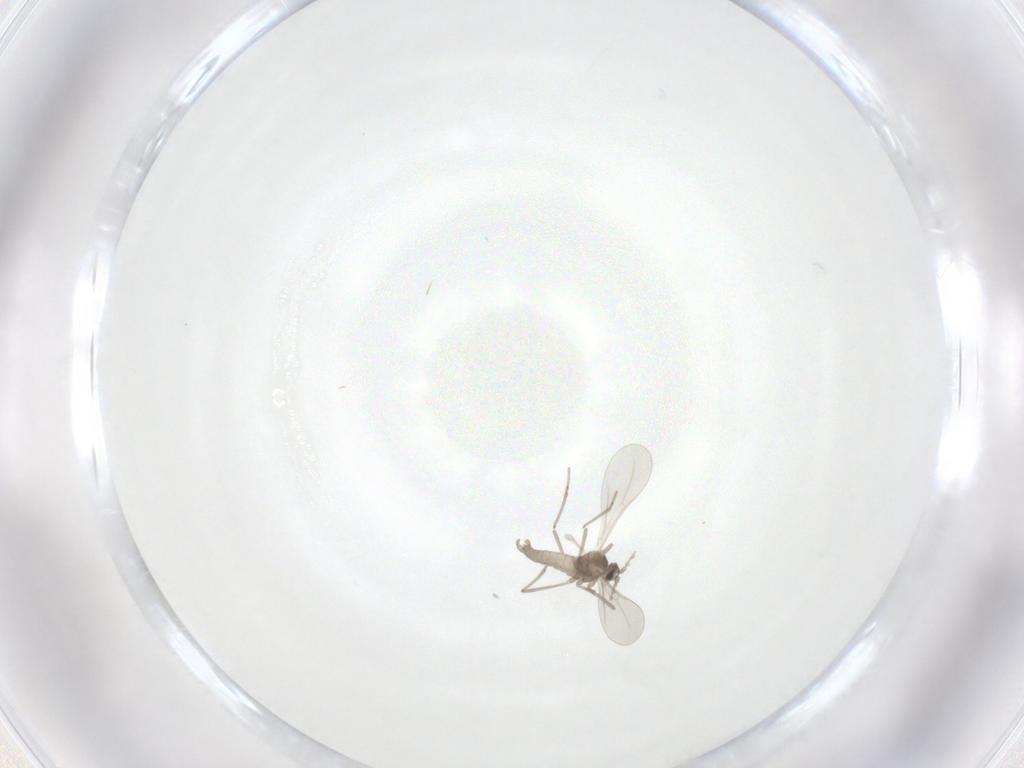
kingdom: Animalia
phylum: Arthropoda
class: Insecta
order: Diptera
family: Cecidomyiidae
